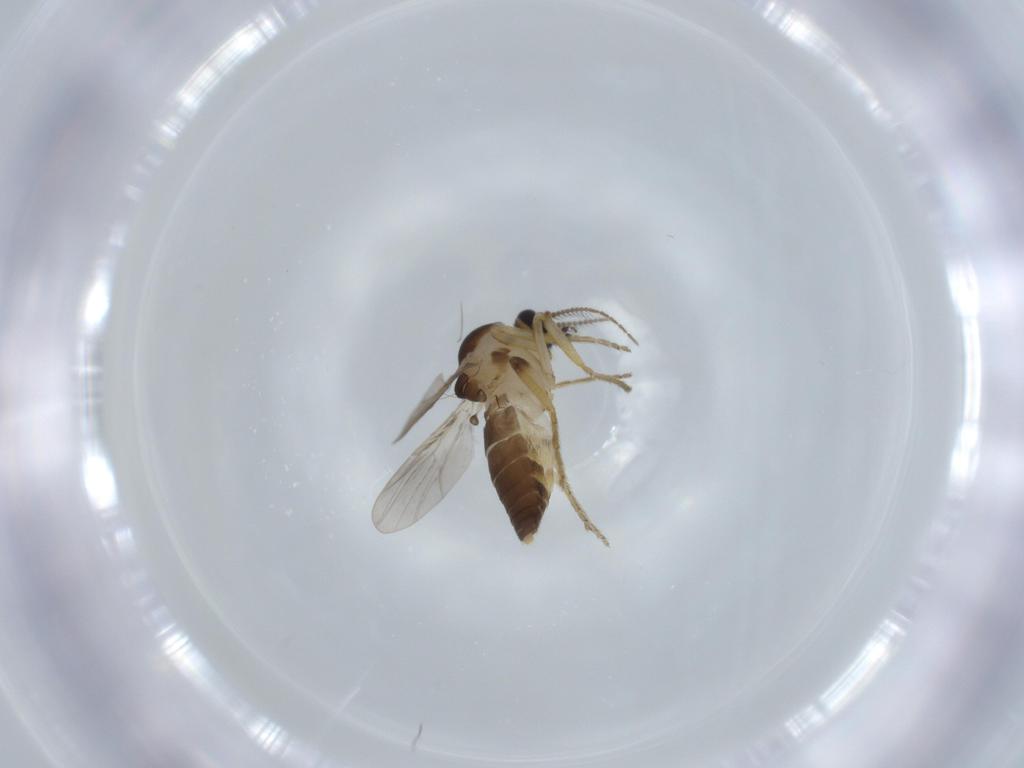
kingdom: Animalia
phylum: Arthropoda
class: Insecta
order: Diptera
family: Ceratopogonidae
